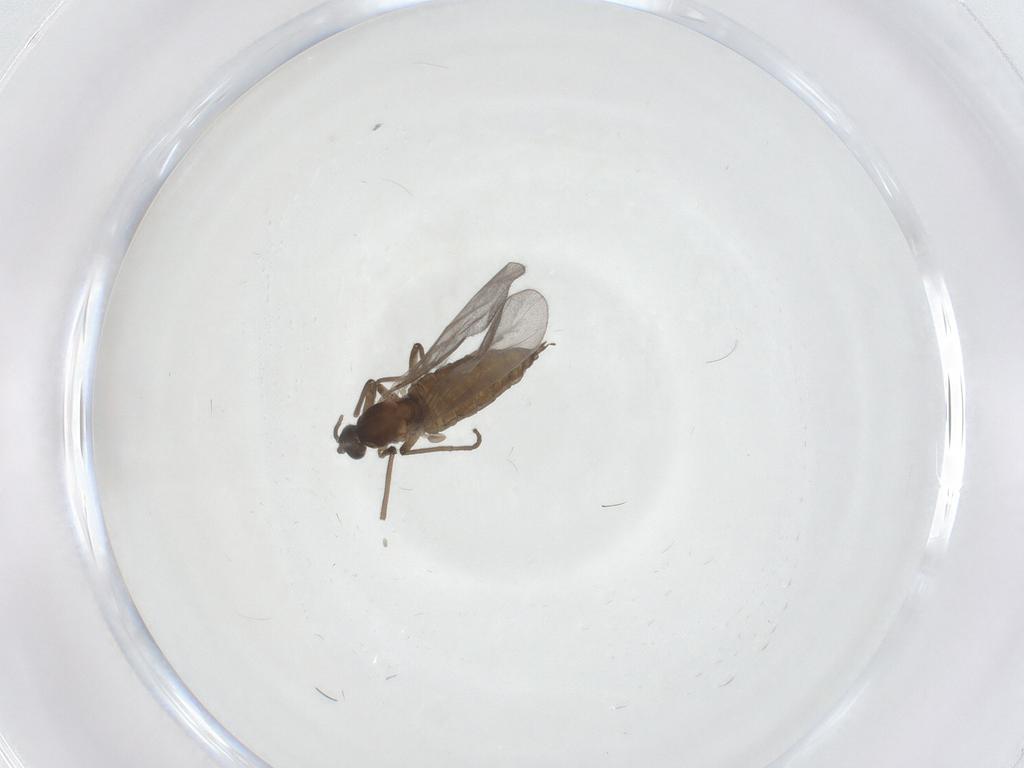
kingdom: Animalia
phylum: Arthropoda
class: Insecta
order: Diptera
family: Cecidomyiidae
